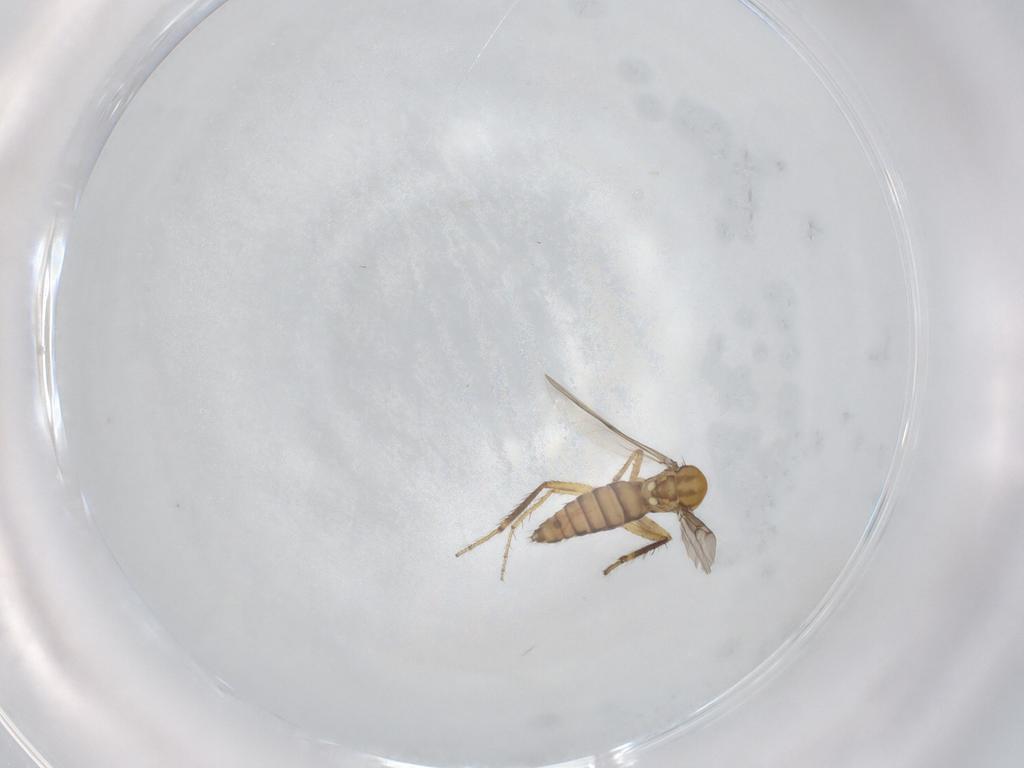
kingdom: Animalia
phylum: Arthropoda
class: Insecta
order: Diptera
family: Ceratopogonidae
